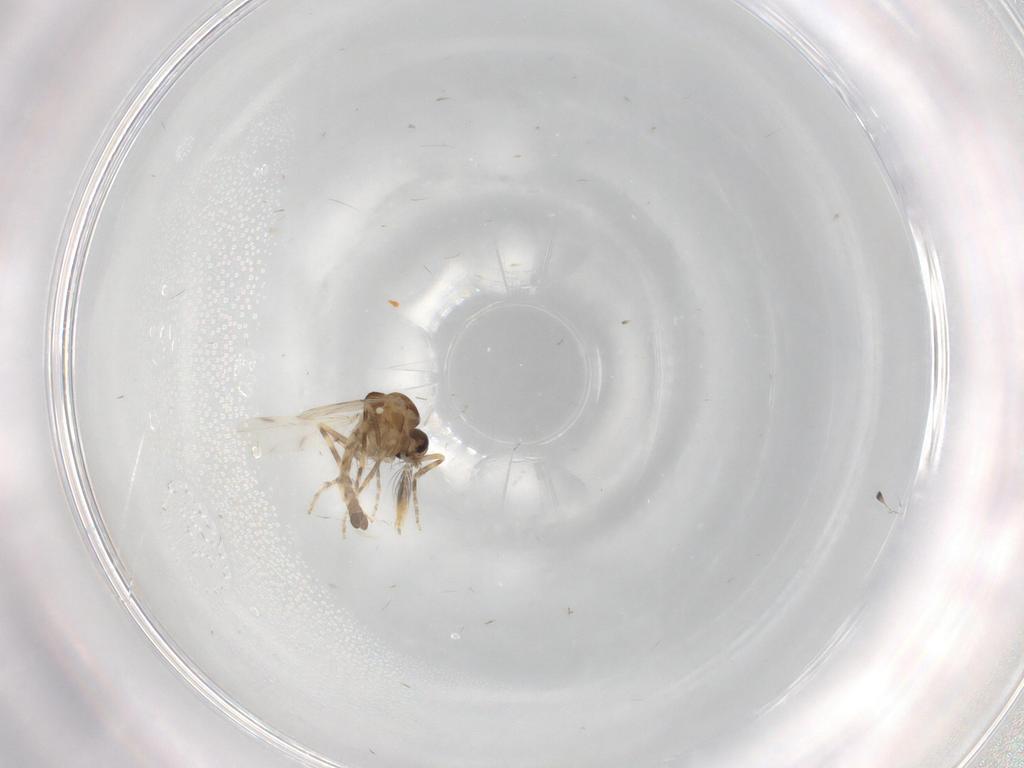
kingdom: Animalia
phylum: Arthropoda
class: Insecta
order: Diptera
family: Ceratopogonidae
